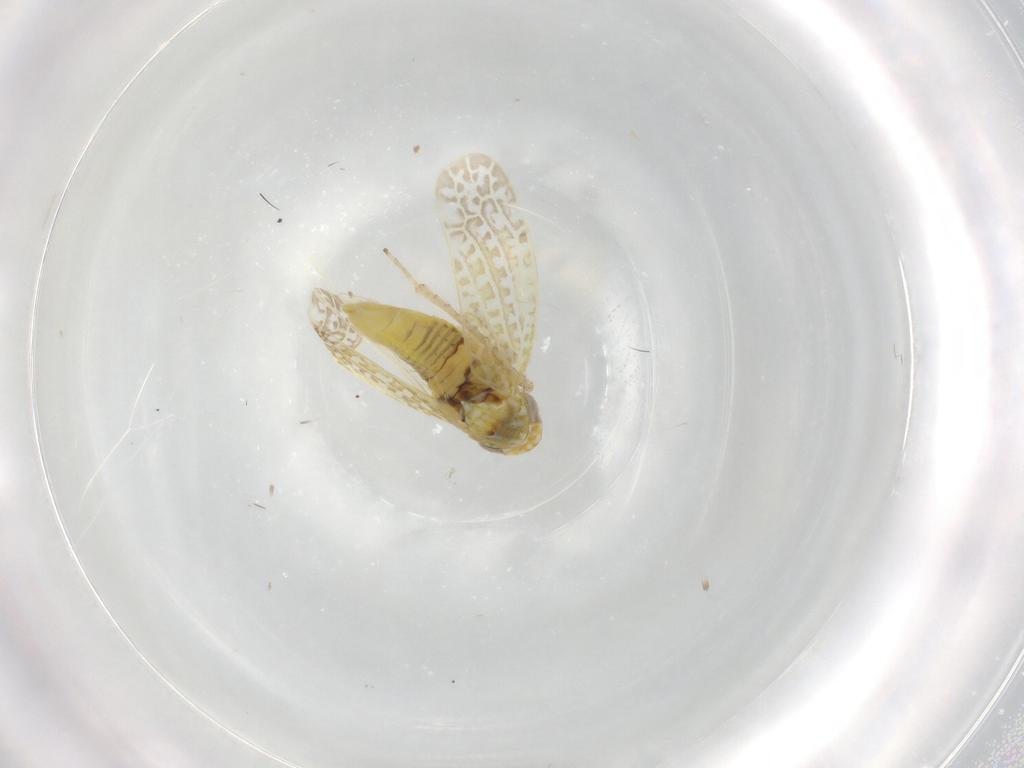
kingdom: Animalia
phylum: Arthropoda
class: Insecta
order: Hemiptera
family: Cicadellidae
